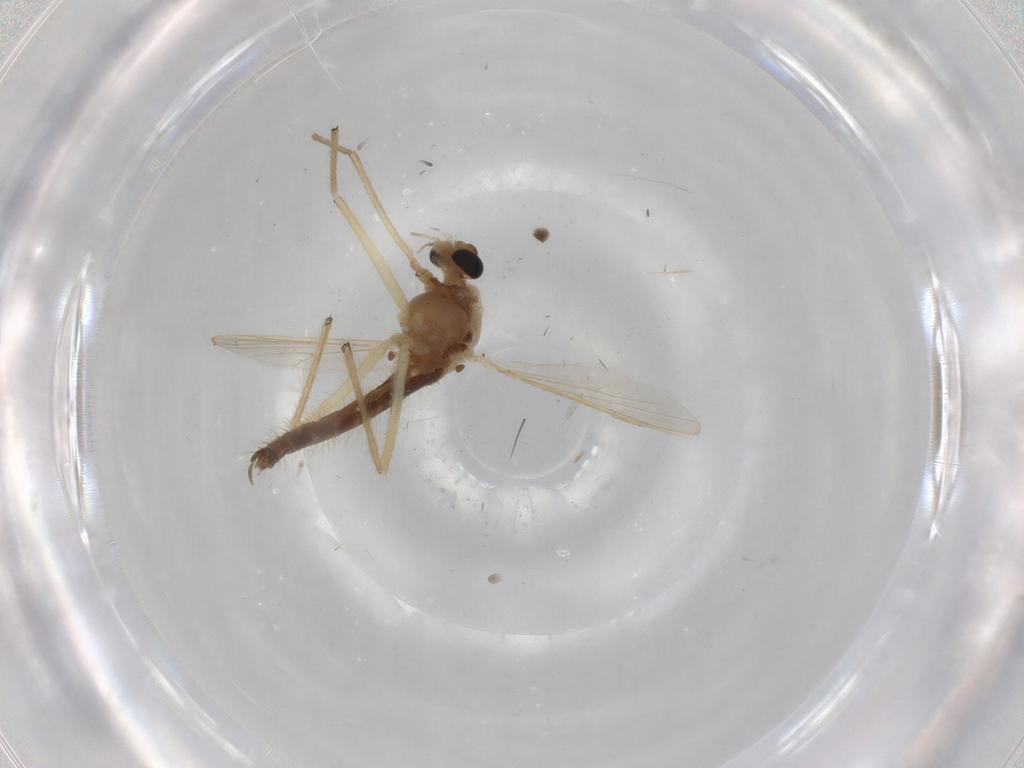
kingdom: Animalia
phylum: Arthropoda
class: Insecta
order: Diptera
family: Chironomidae
